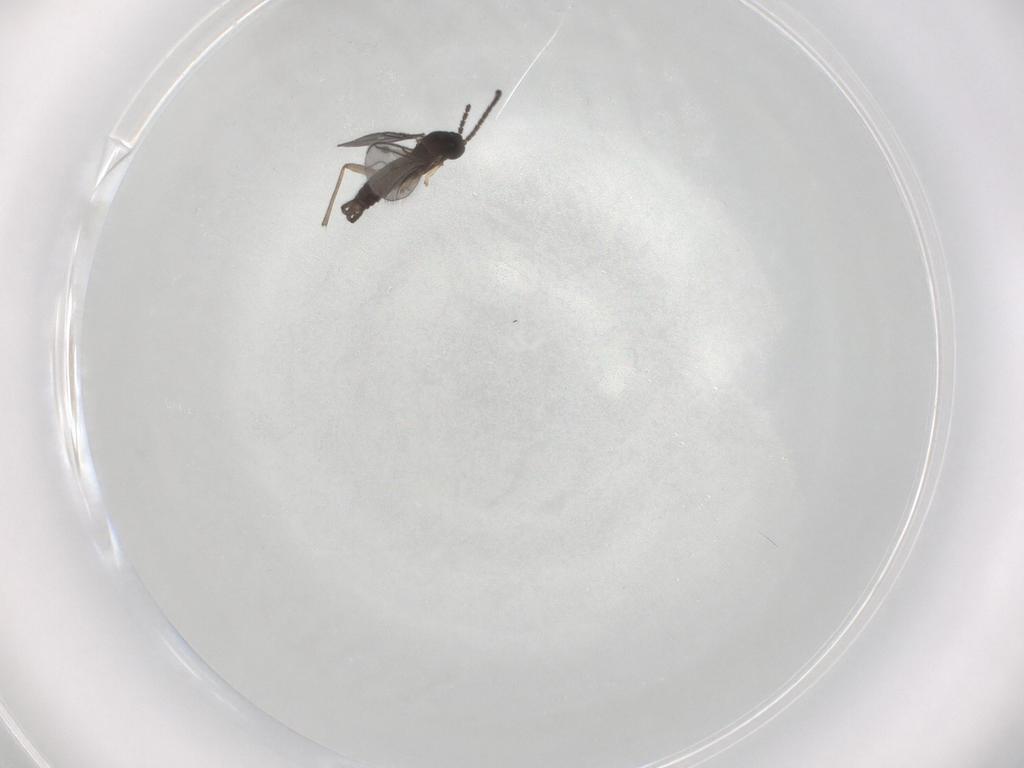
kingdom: Animalia
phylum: Arthropoda
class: Insecta
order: Diptera
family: Sciaridae
